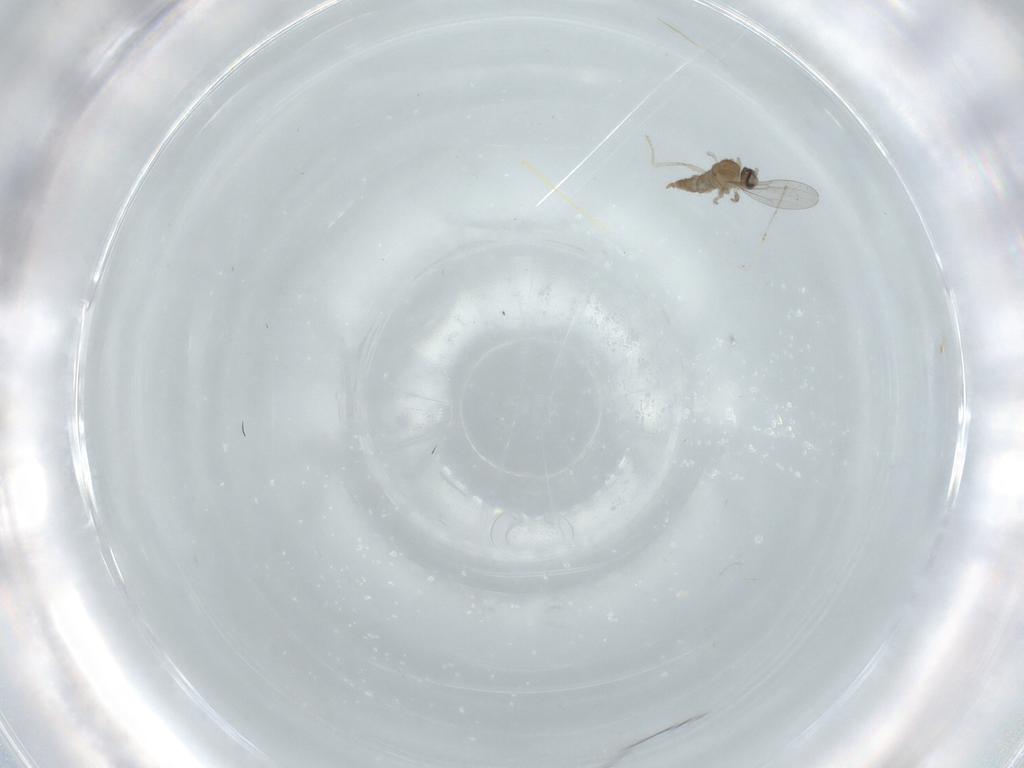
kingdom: Animalia
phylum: Arthropoda
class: Insecta
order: Diptera
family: Cecidomyiidae
